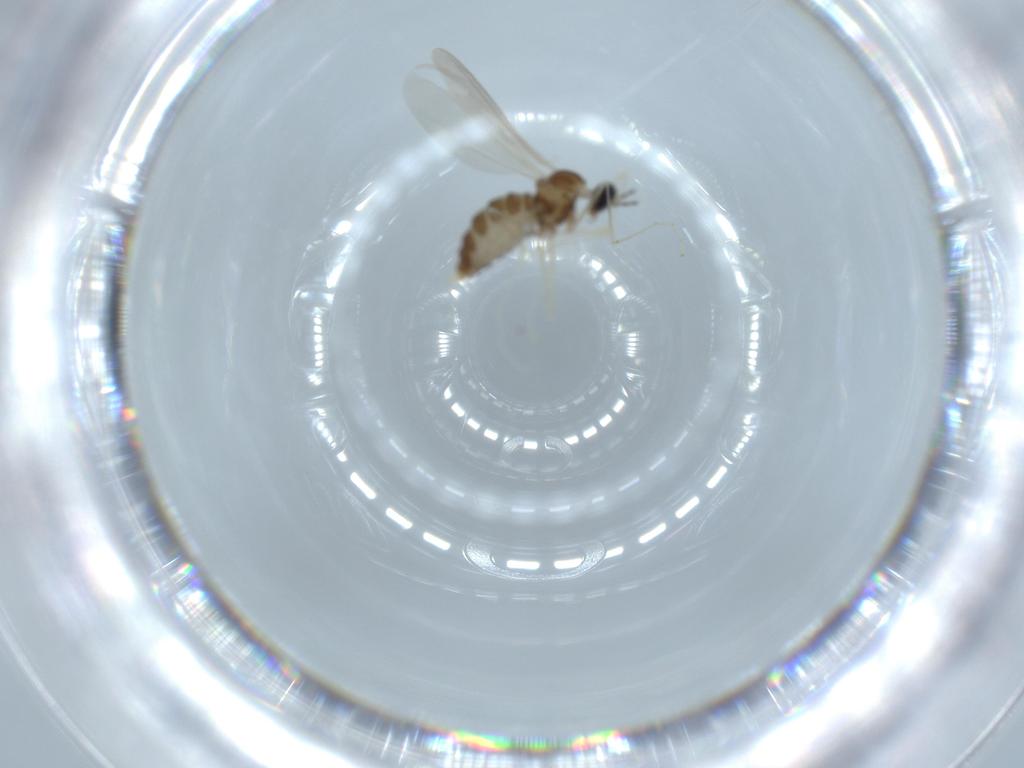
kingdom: Animalia
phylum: Arthropoda
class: Insecta
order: Diptera
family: Cecidomyiidae
